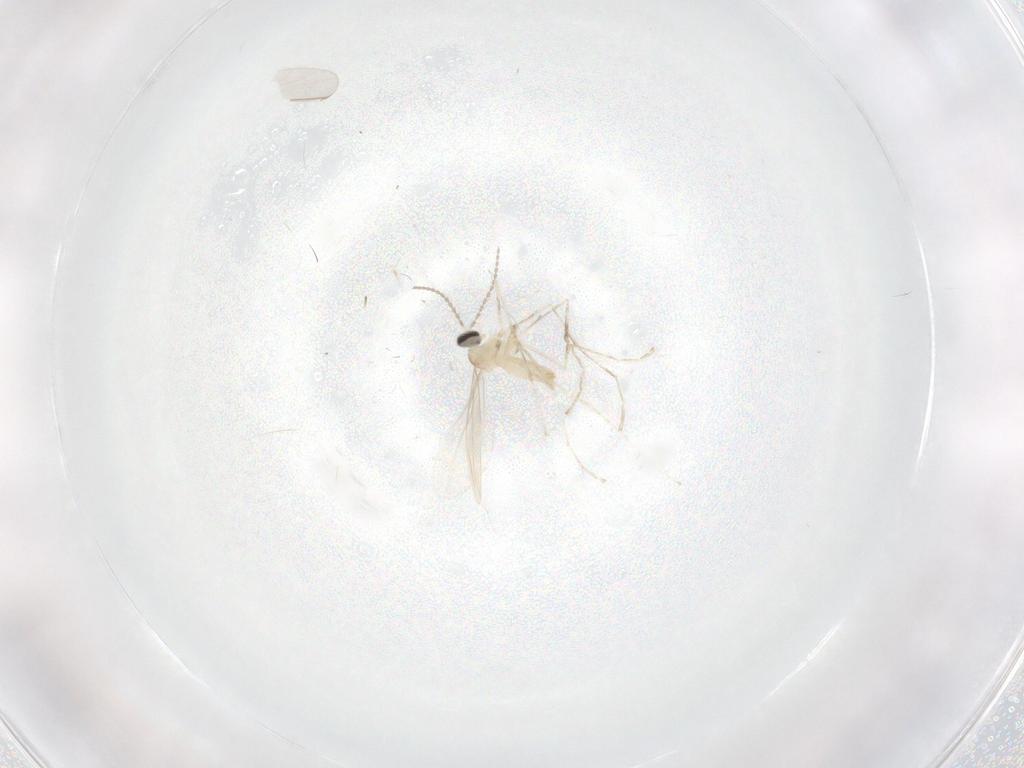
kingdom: Animalia
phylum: Arthropoda
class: Insecta
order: Diptera
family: Chironomidae
